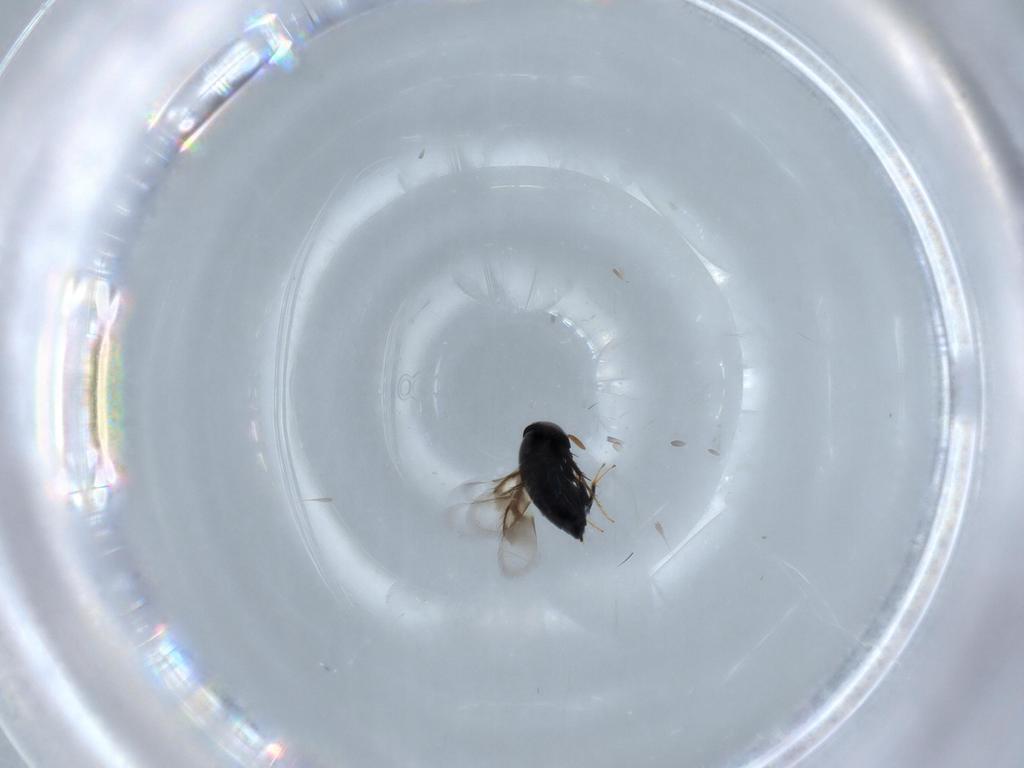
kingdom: Animalia
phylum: Arthropoda
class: Insecta
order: Hymenoptera
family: Signiphoridae
